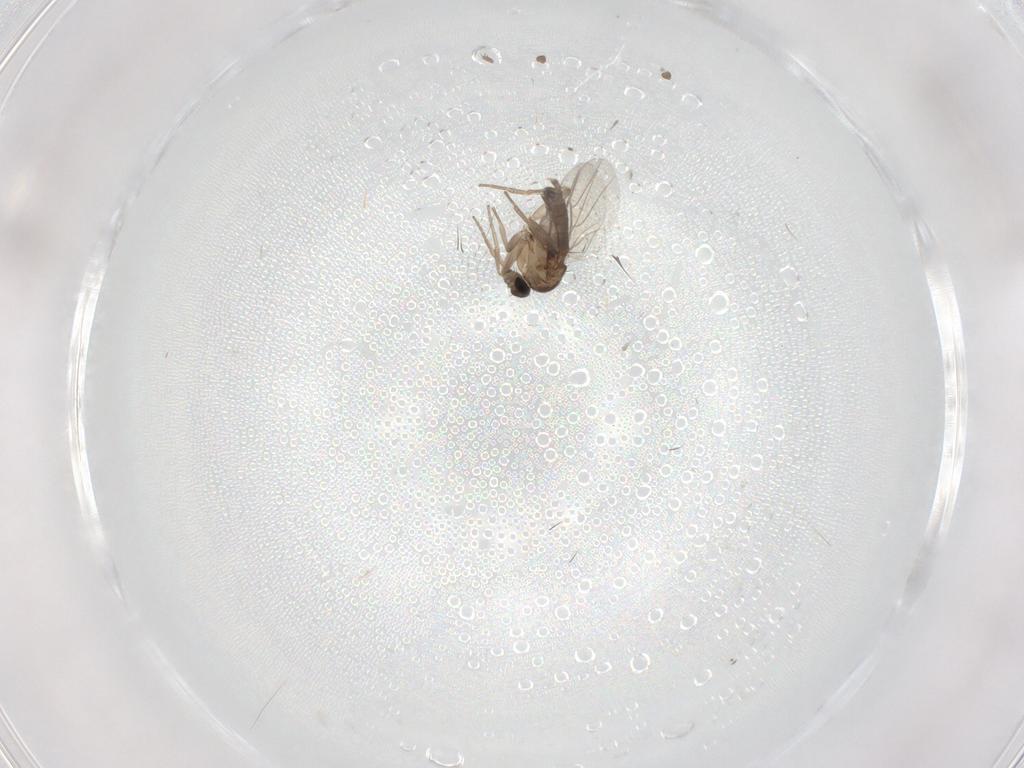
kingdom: Animalia
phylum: Arthropoda
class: Insecta
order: Diptera
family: Phoridae
